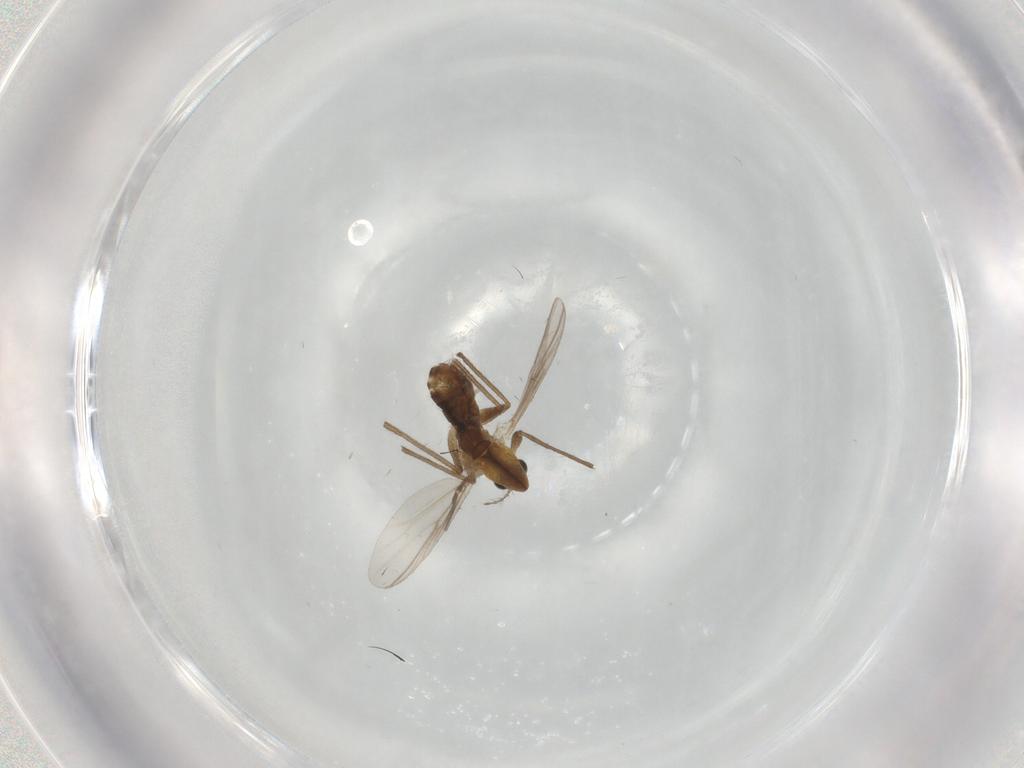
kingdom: Animalia
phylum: Arthropoda
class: Insecta
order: Diptera
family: Chironomidae
